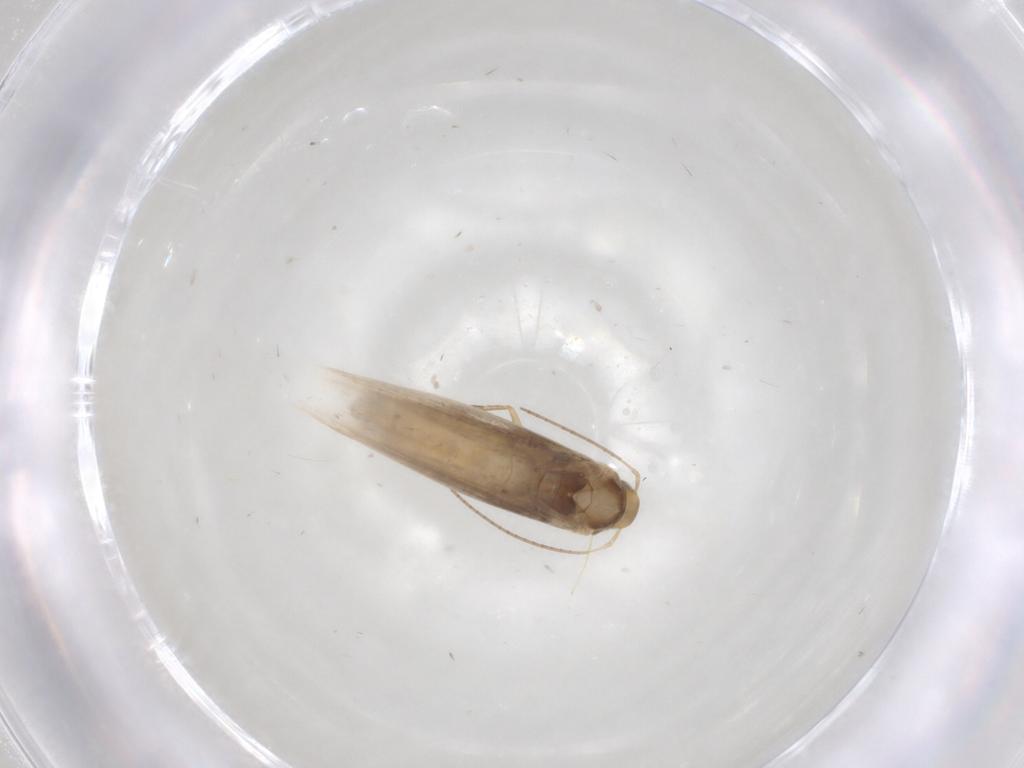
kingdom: Animalia
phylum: Arthropoda
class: Insecta
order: Lepidoptera
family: Gracillariidae
